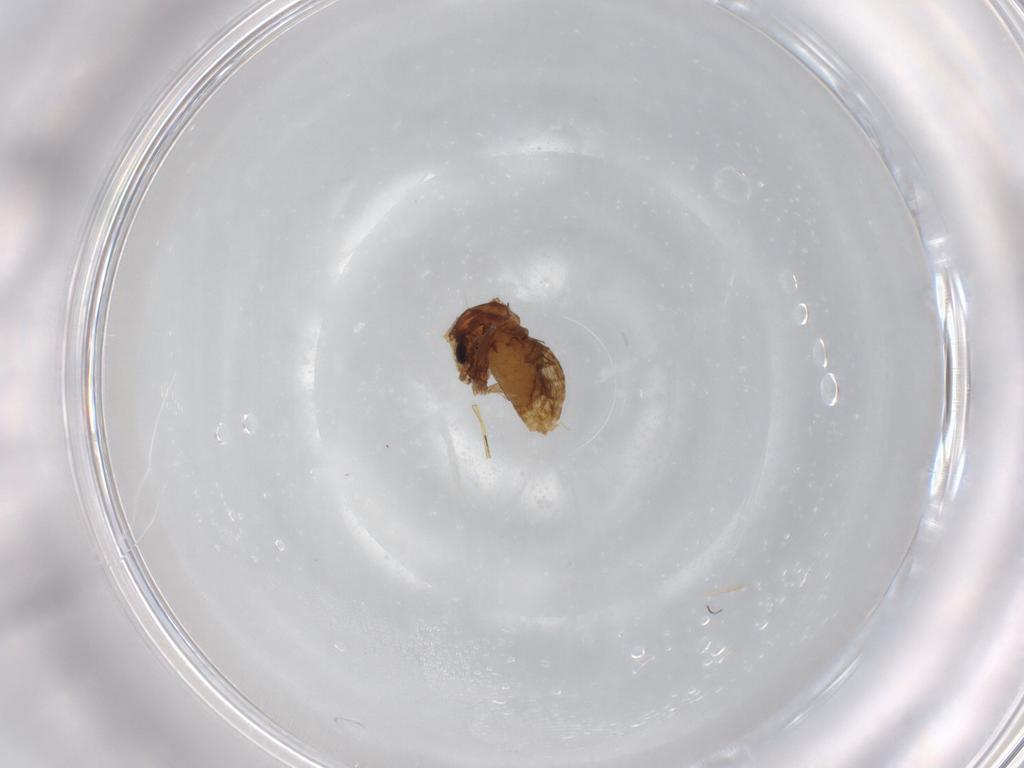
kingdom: Animalia
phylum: Arthropoda
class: Insecta
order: Diptera
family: Chironomidae
